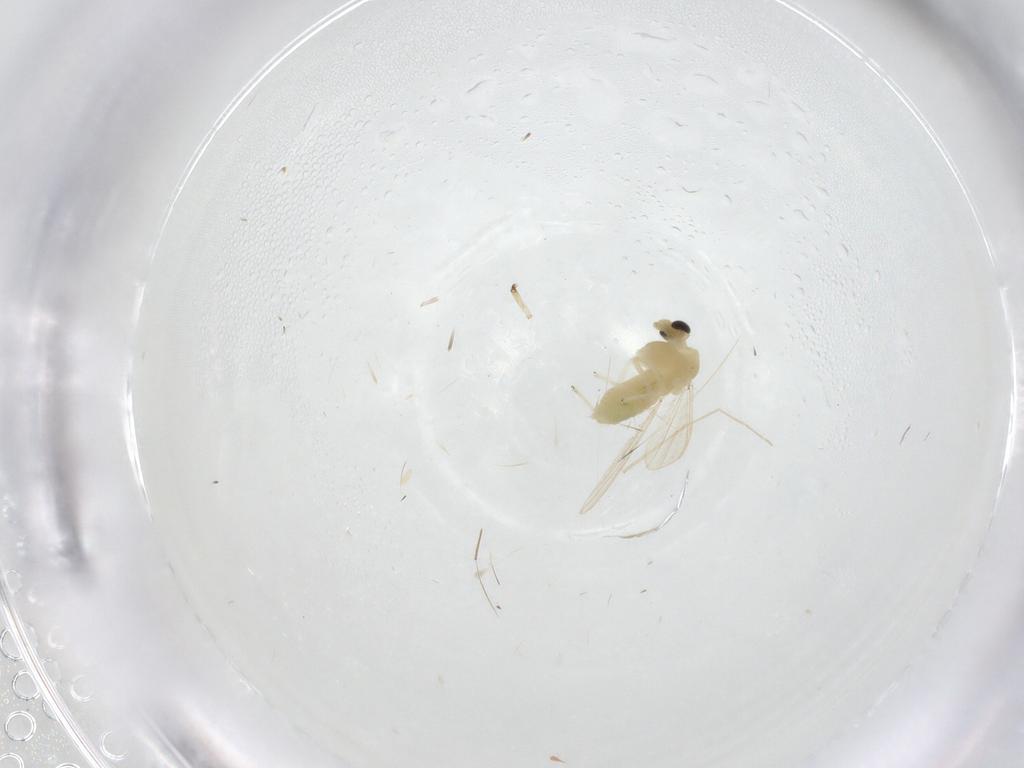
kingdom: Animalia
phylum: Arthropoda
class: Insecta
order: Diptera
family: Chironomidae
